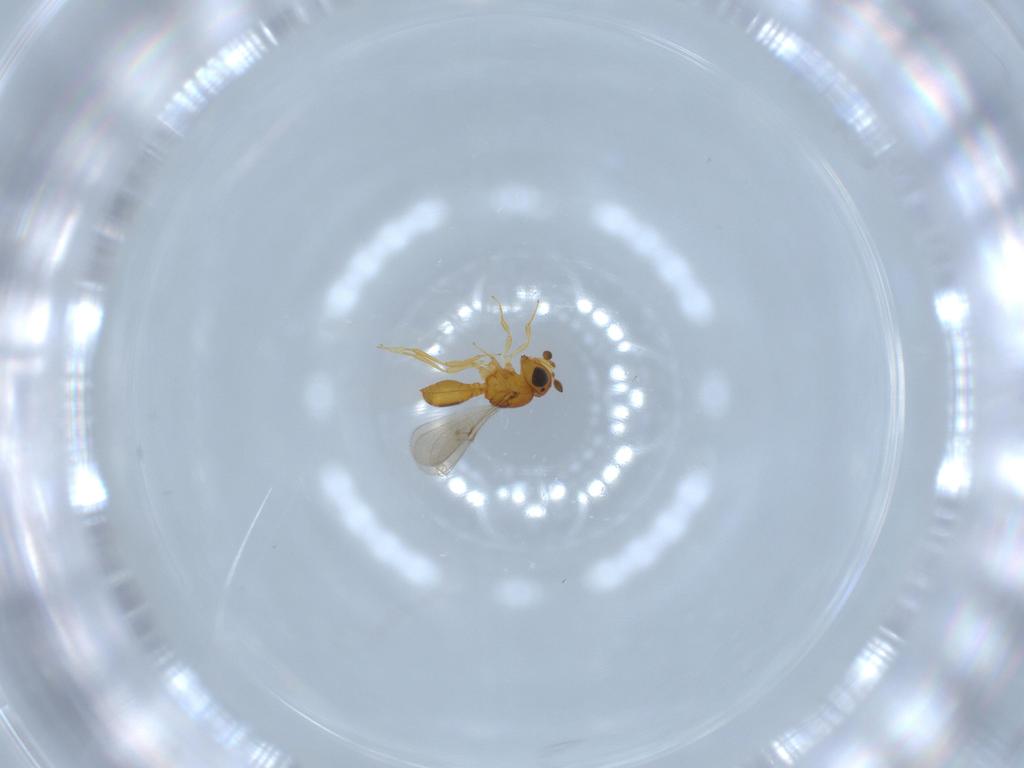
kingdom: Animalia
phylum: Arthropoda
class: Insecta
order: Hymenoptera
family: Scelionidae
